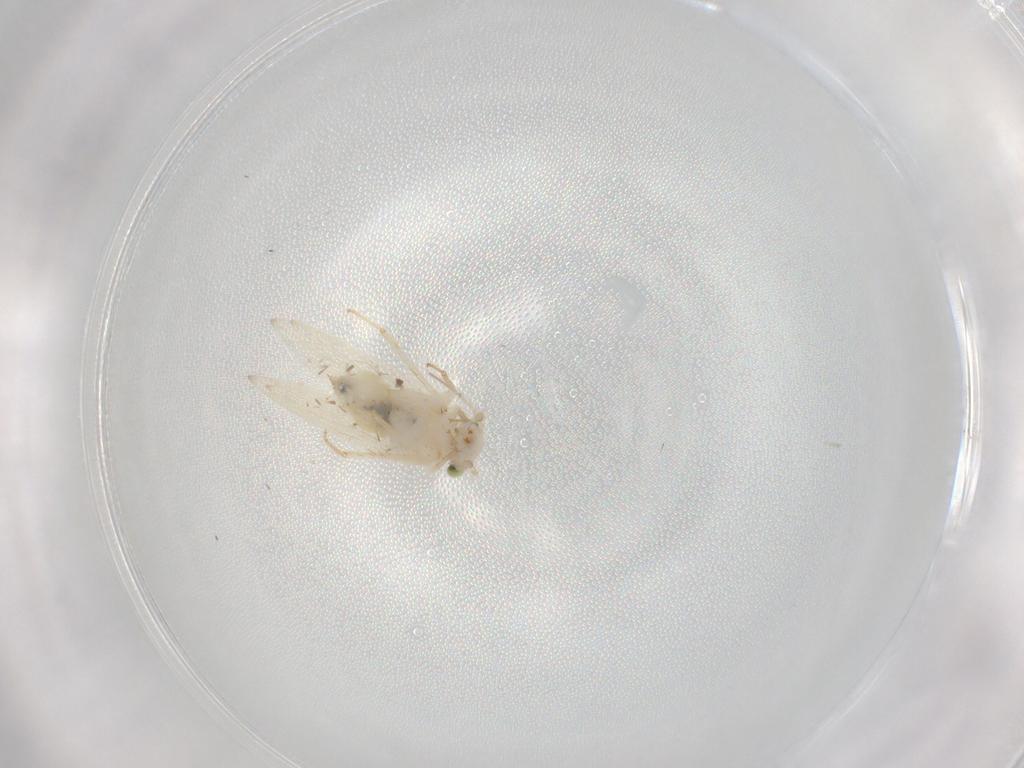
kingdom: Animalia
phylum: Arthropoda
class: Insecta
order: Psocodea
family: Lepidopsocidae
